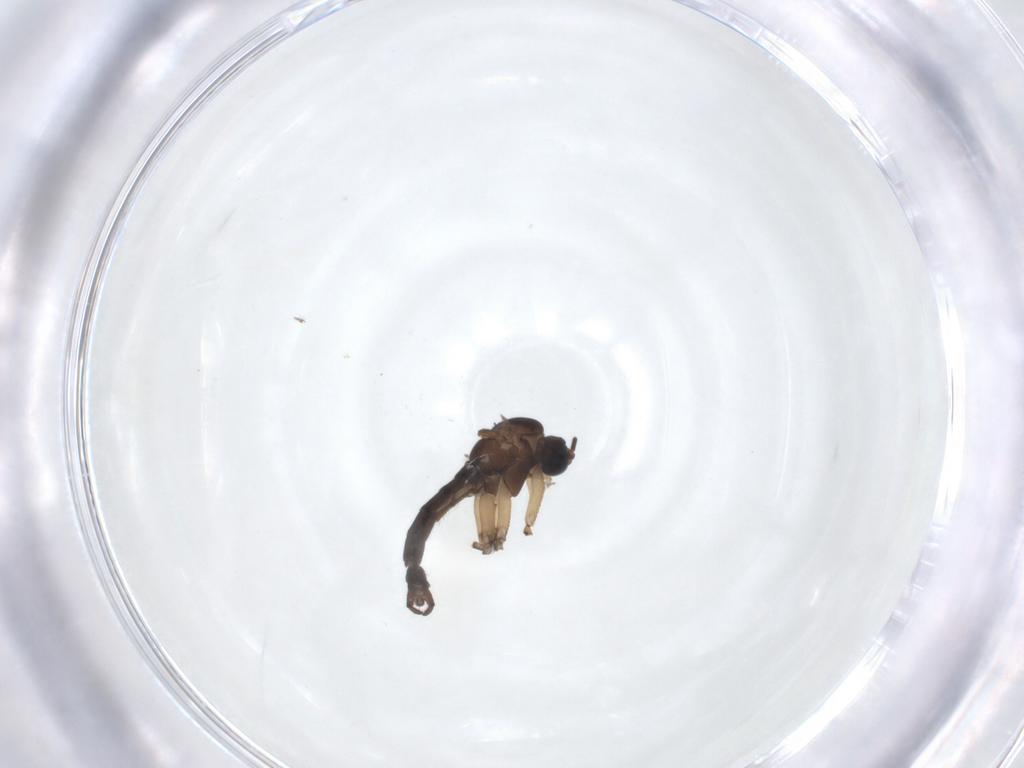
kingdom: Animalia
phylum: Arthropoda
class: Insecta
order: Diptera
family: Sciaridae
